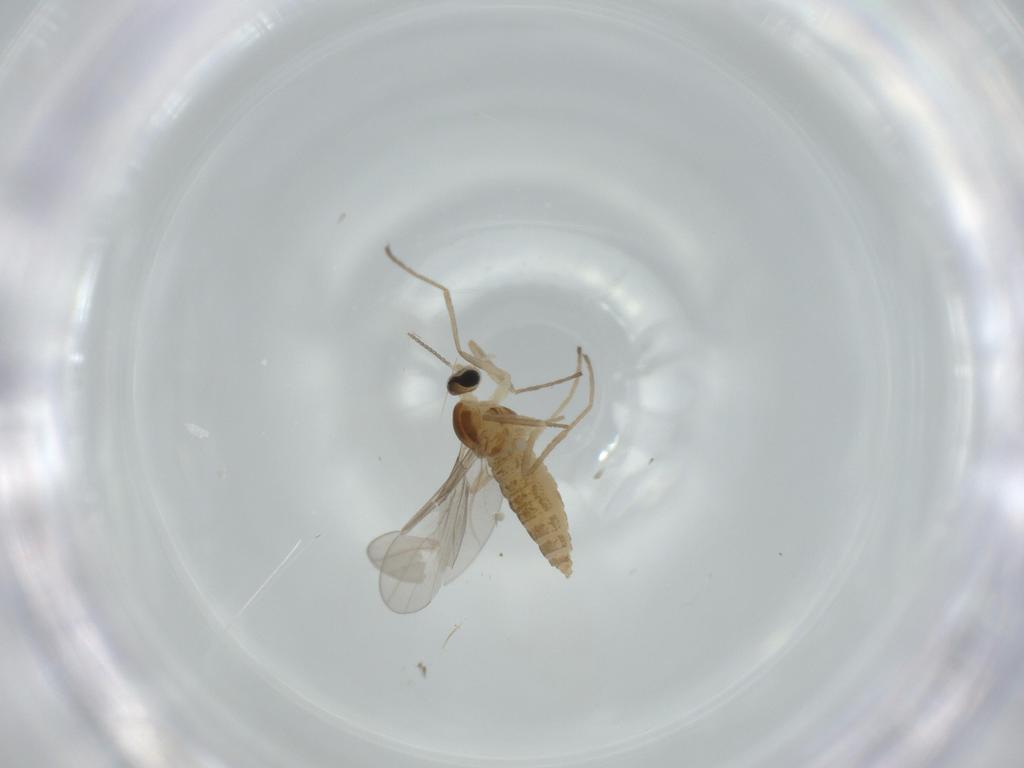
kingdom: Animalia
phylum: Arthropoda
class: Insecta
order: Diptera
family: Cecidomyiidae
